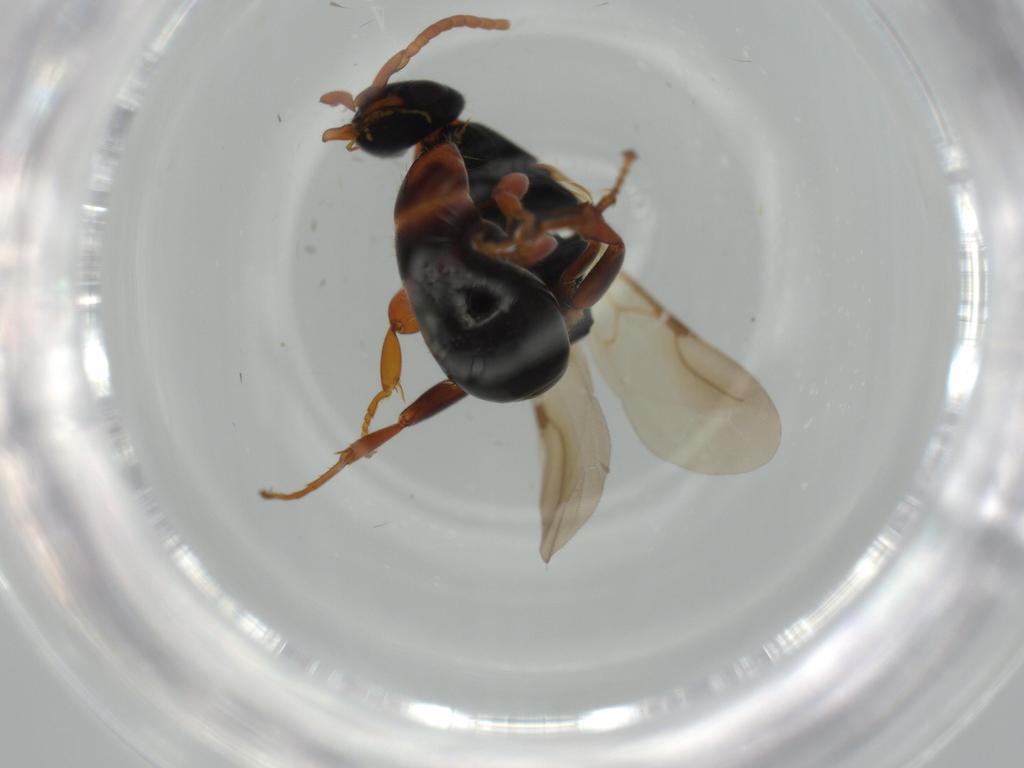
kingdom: Animalia
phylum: Arthropoda
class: Insecta
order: Hymenoptera
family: Bethylidae
